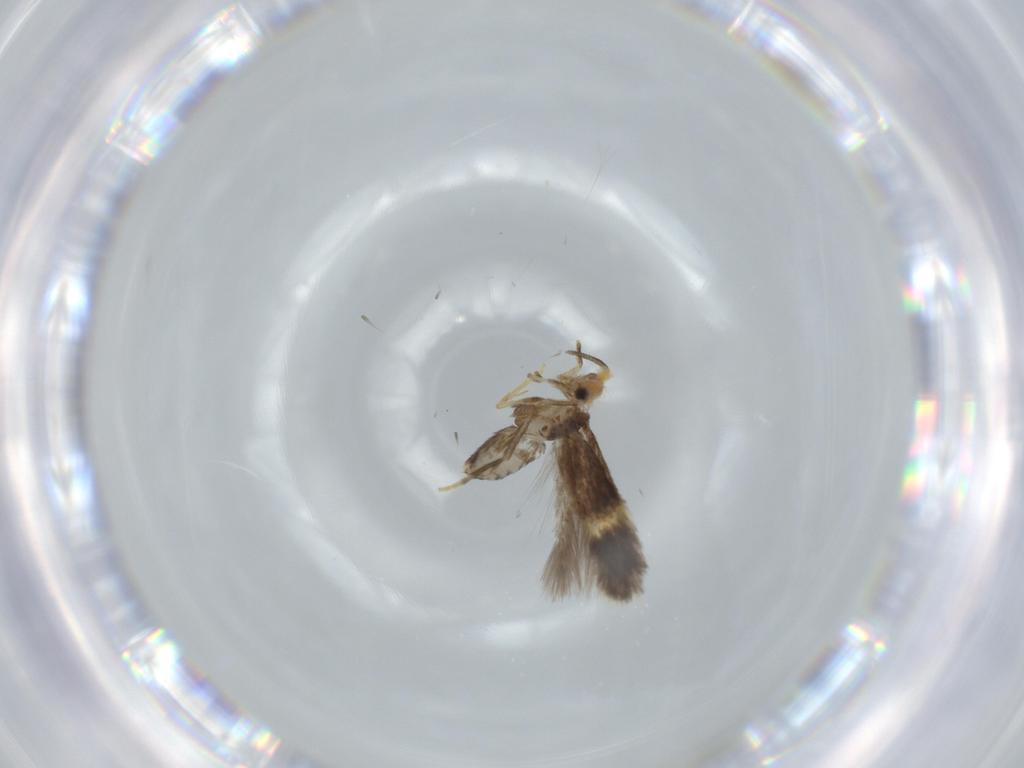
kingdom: Animalia
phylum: Arthropoda
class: Insecta
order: Lepidoptera
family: Nepticulidae
